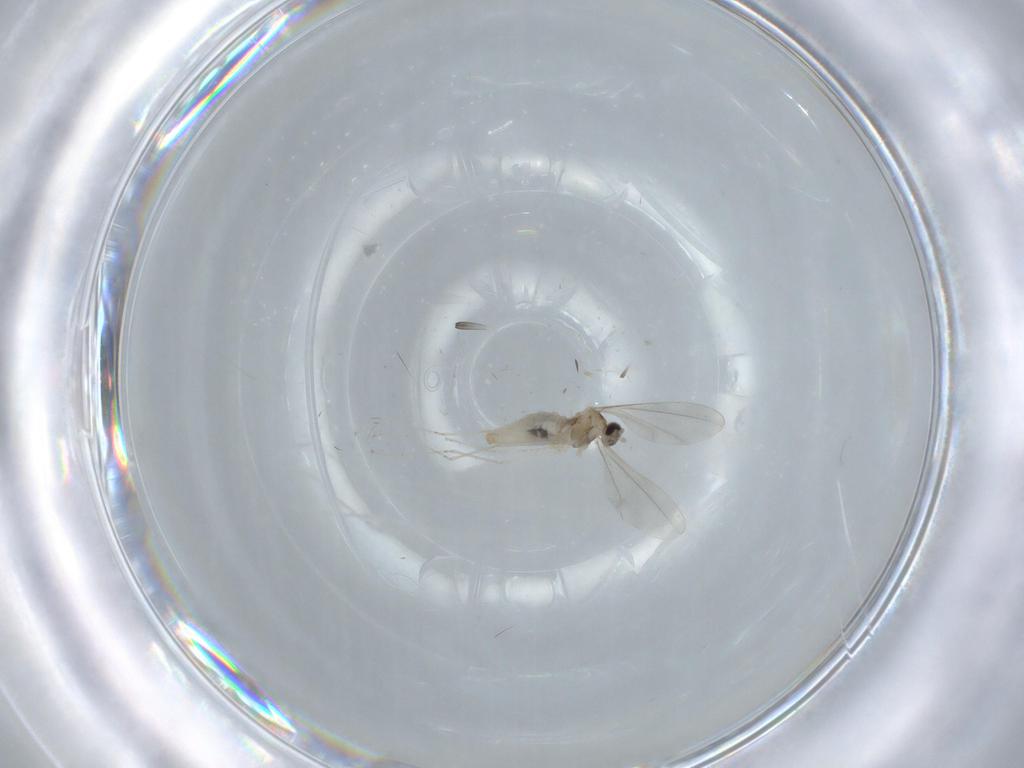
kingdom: Animalia
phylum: Arthropoda
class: Insecta
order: Diptera
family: Sciaridae
